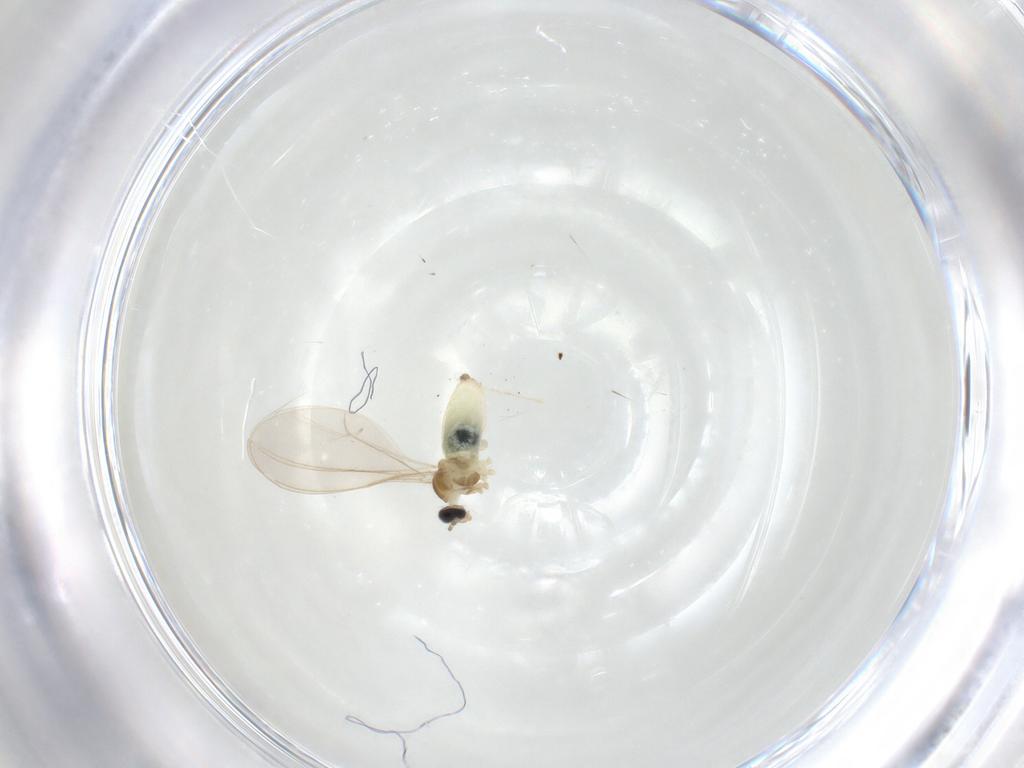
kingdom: Animalia
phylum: Arthropoda
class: Insecta
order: Diptera
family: Cecidomyiidae
